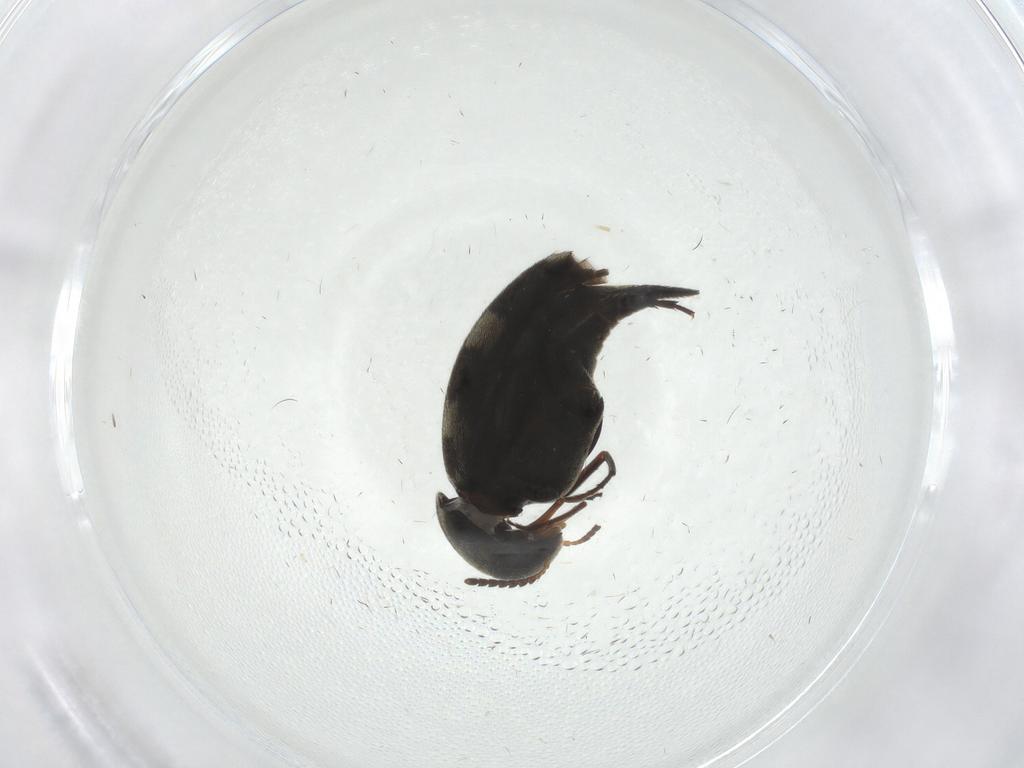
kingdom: Animalia
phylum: Arthropoda
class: Insecta
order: Coleoptera
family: Mordellidae
